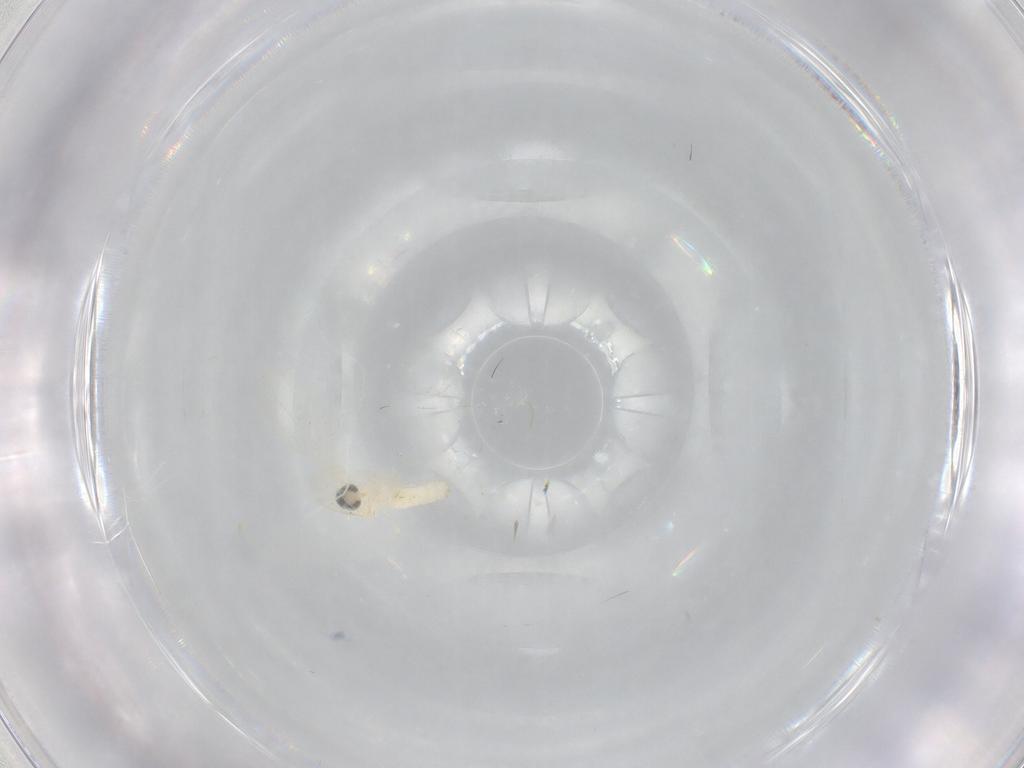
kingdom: Animalia
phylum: Arthropoda
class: Insecta
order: Diptera
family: Cecidomyiidae
